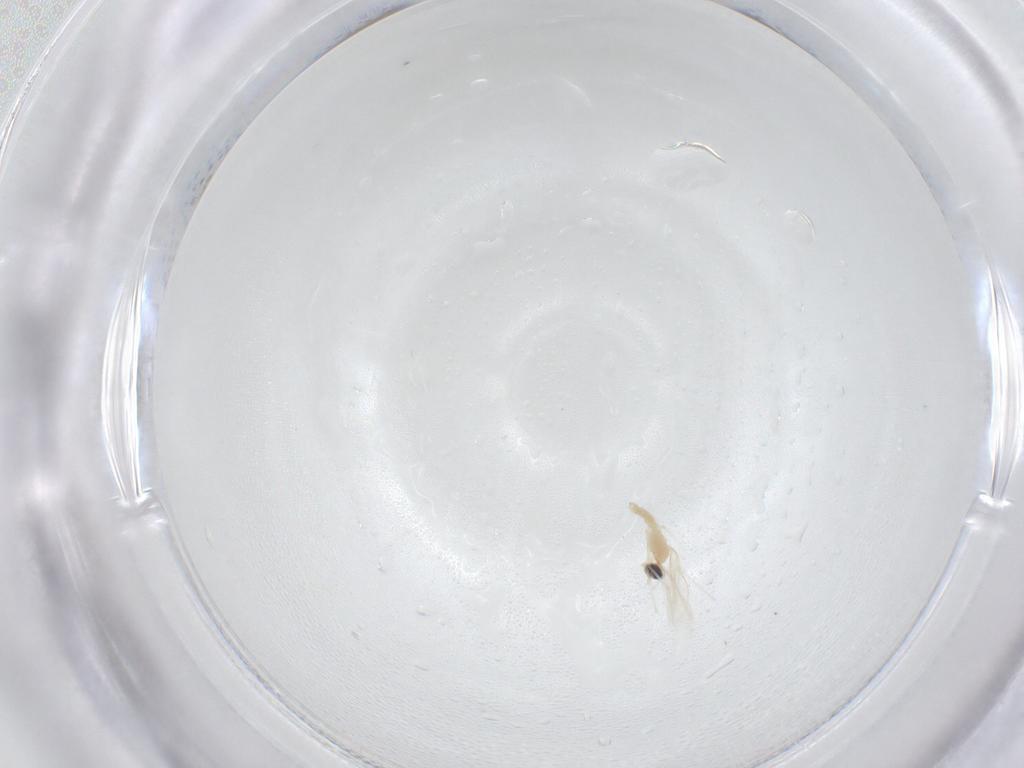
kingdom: Animalia
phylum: Arthropoda
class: Insecta
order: Diptera
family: Cecidomyiidae
